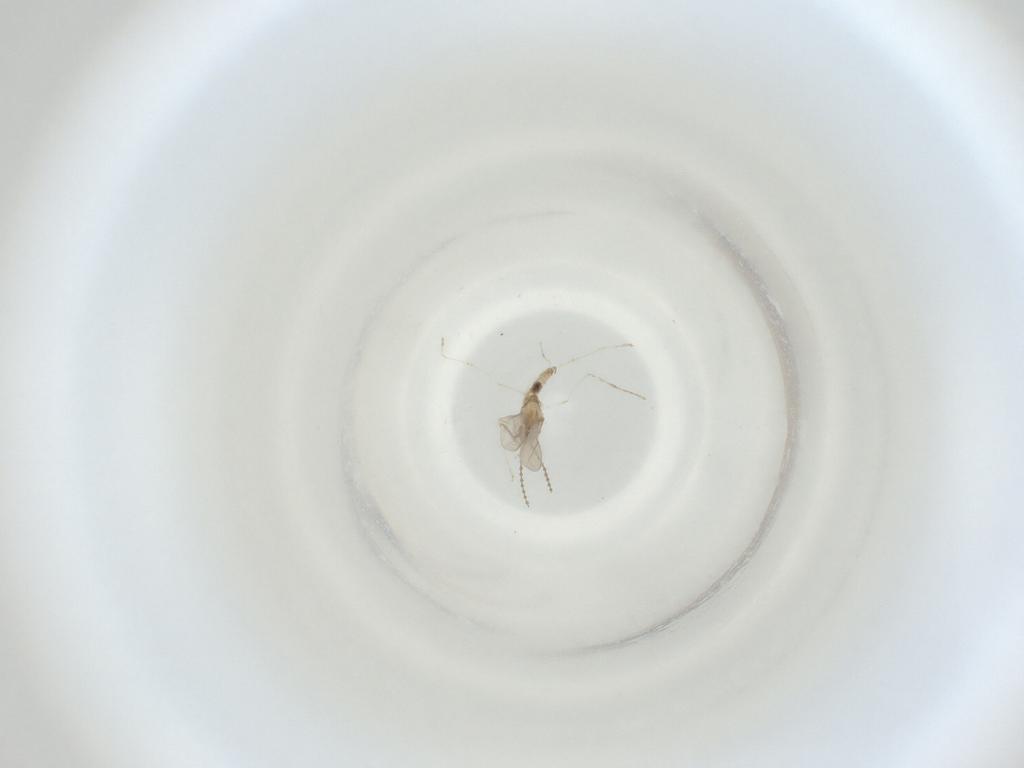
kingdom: Animalia
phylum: Arthropoda
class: Insecta
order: Diptera
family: Cecidomyiidae
